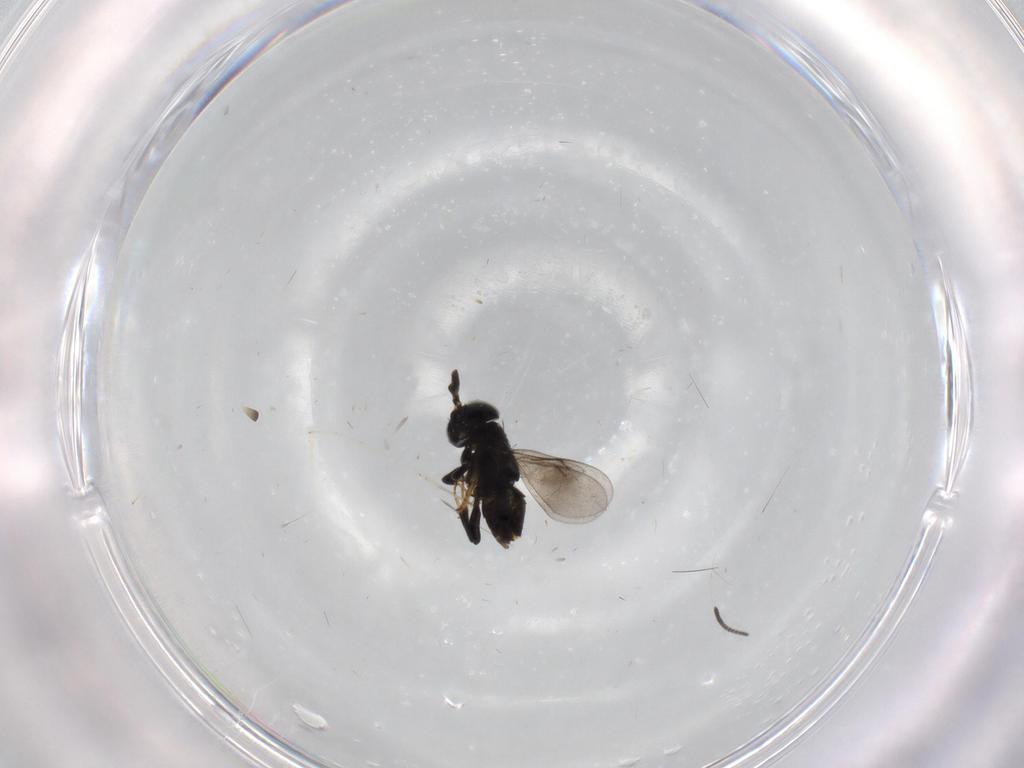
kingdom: Animalia
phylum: Arthropoda
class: Insecta
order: Hymenoptera
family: Encyrtidae
